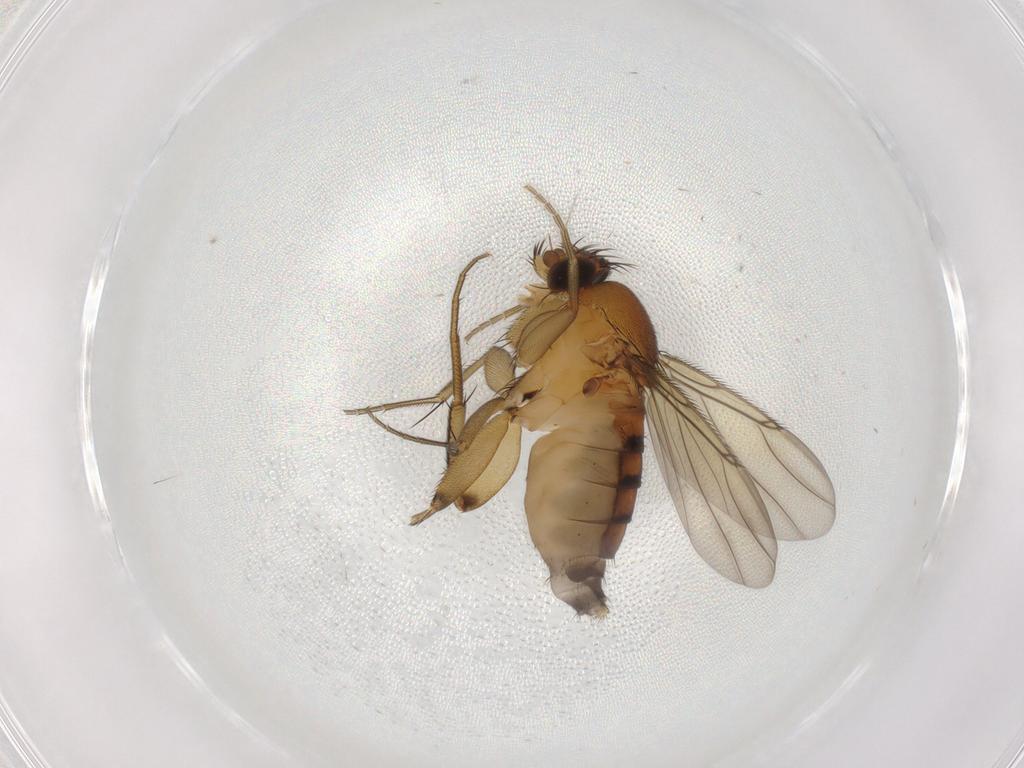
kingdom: Animalia
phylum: Arthropoda
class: Insecta
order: Diptera
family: Phoridae
